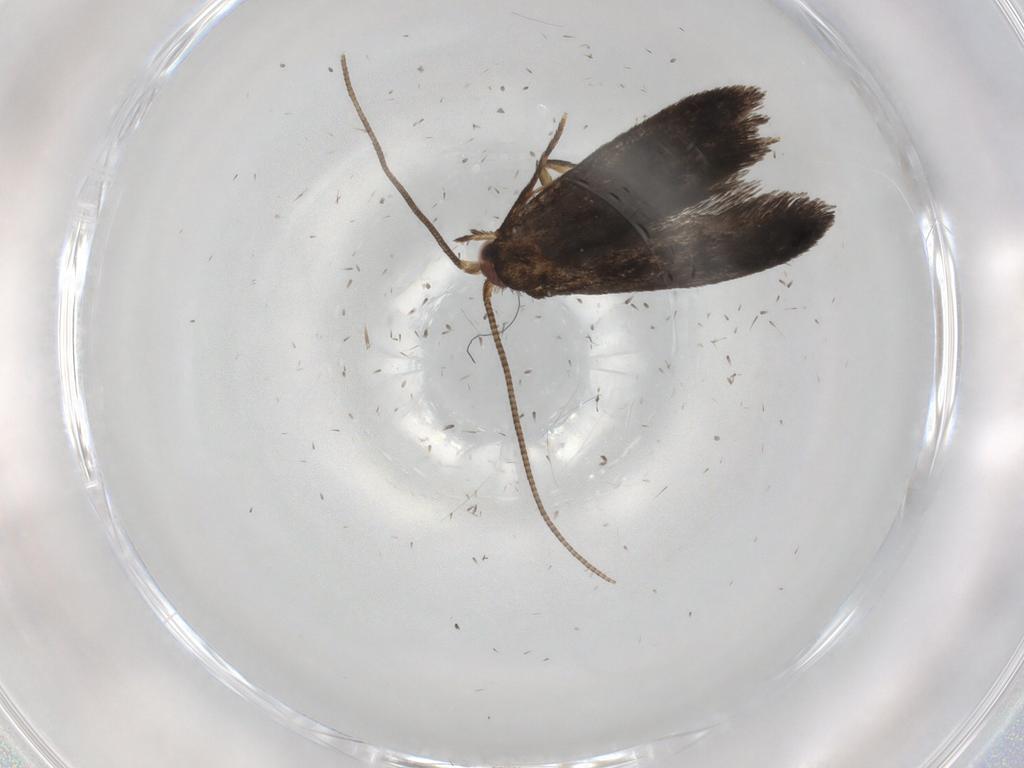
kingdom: Animalia
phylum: Arthropoda
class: Insecta
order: Lepidoptera
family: Nepticulidae
